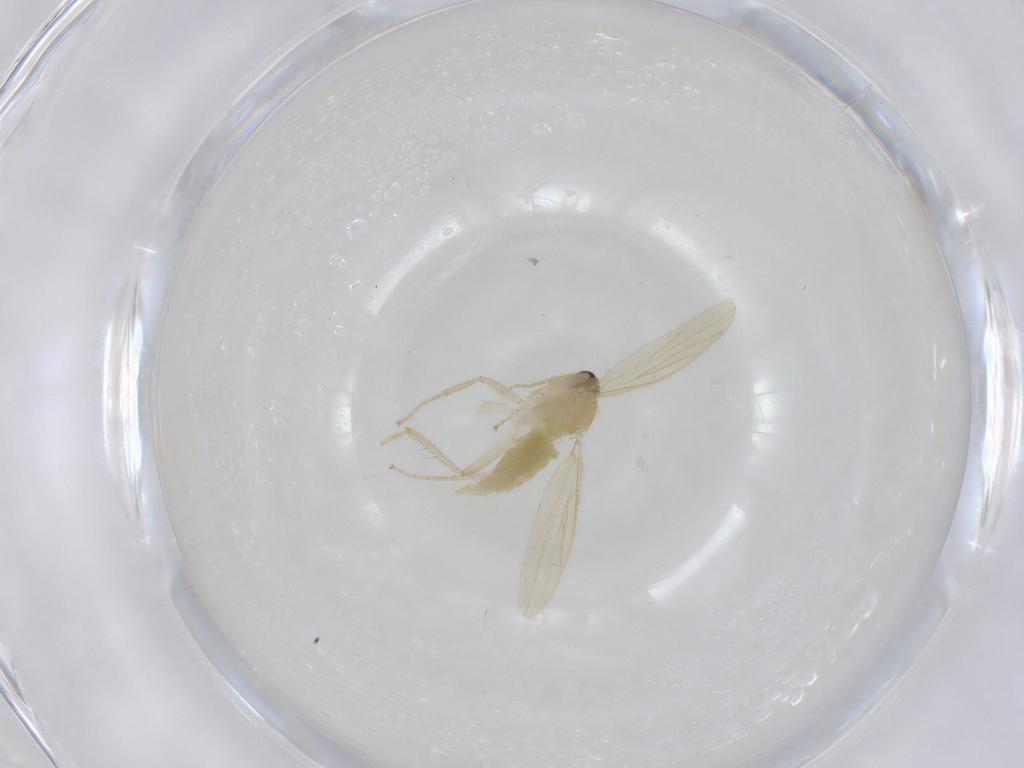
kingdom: Animalia
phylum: Arthropoda
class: Insecta
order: Diptera
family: Hybotidae
